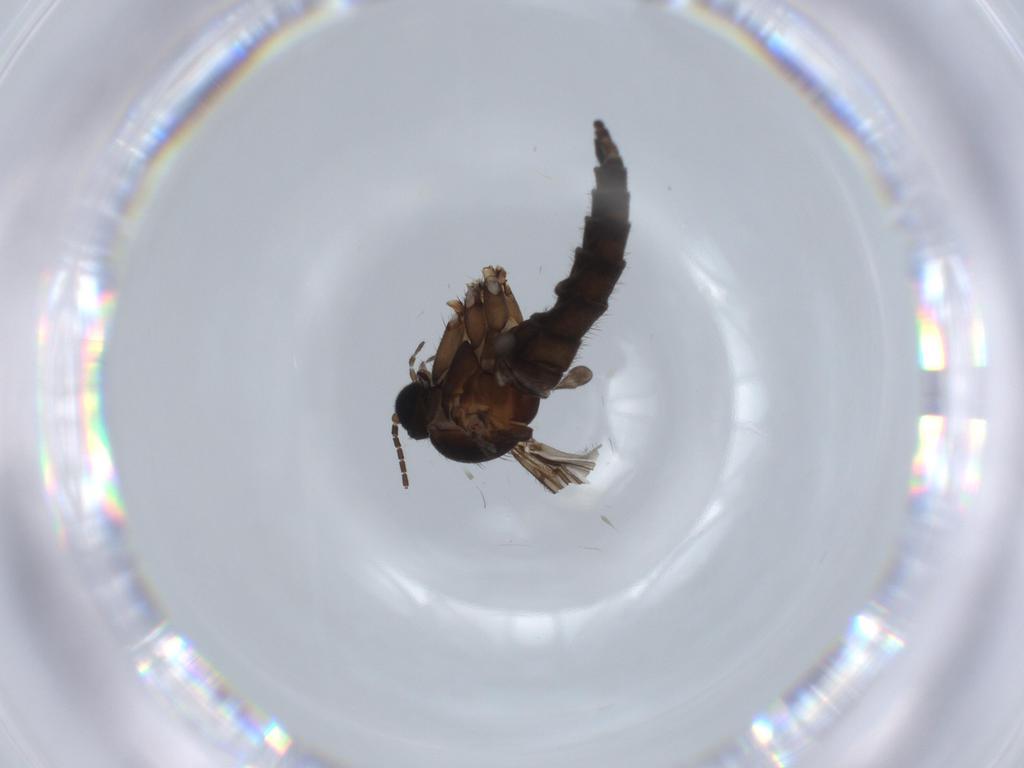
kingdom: Animalia
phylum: Arthropoda
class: Insecta
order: Diptera
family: Sciaridae
